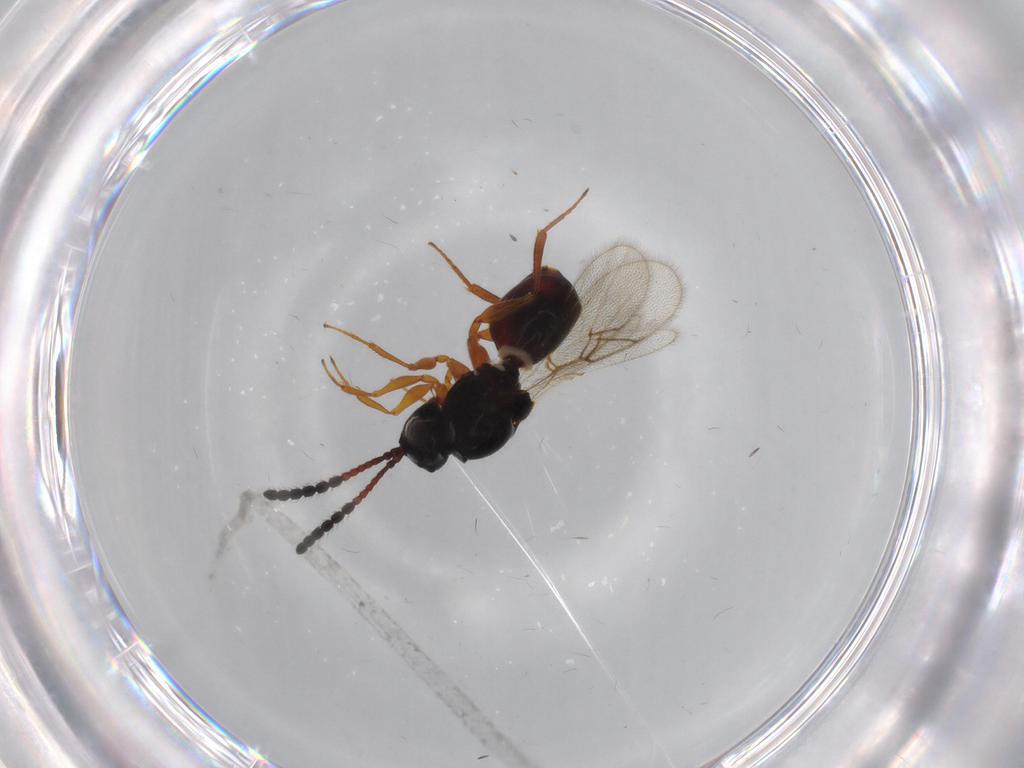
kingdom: Animalia
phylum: Arthropoda
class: Insecta
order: Hymenoptera
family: Figitidae
